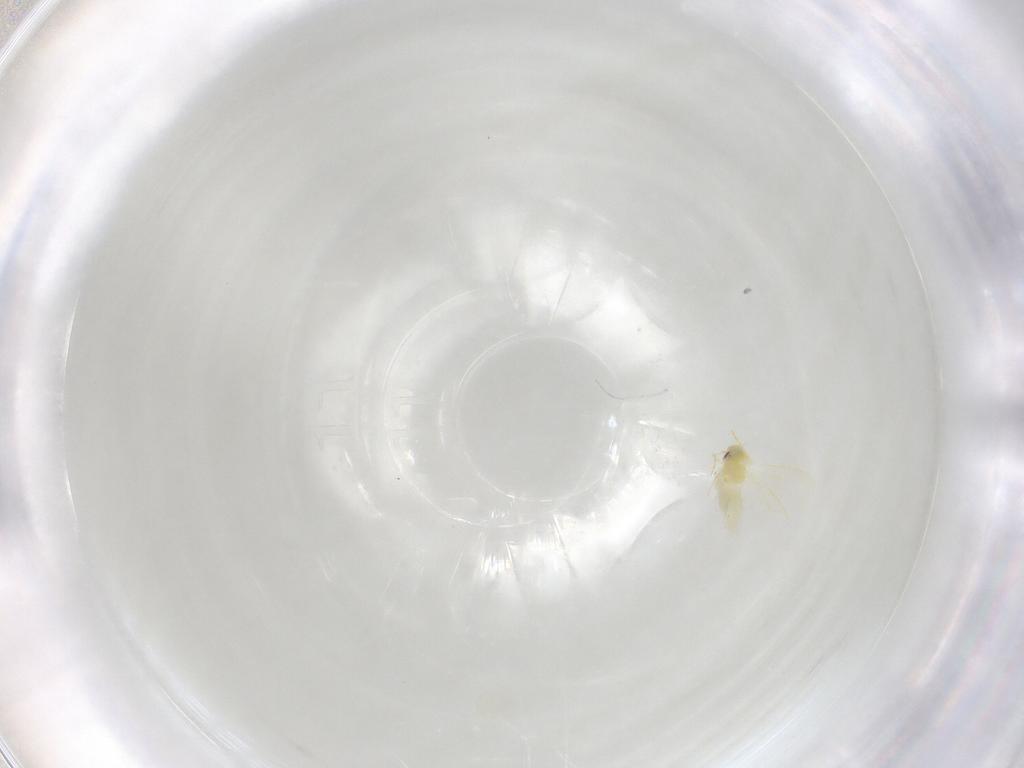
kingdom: Animalia
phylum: Arthropoda
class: Insecta
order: Hemiptera
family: Aleyrodidae
